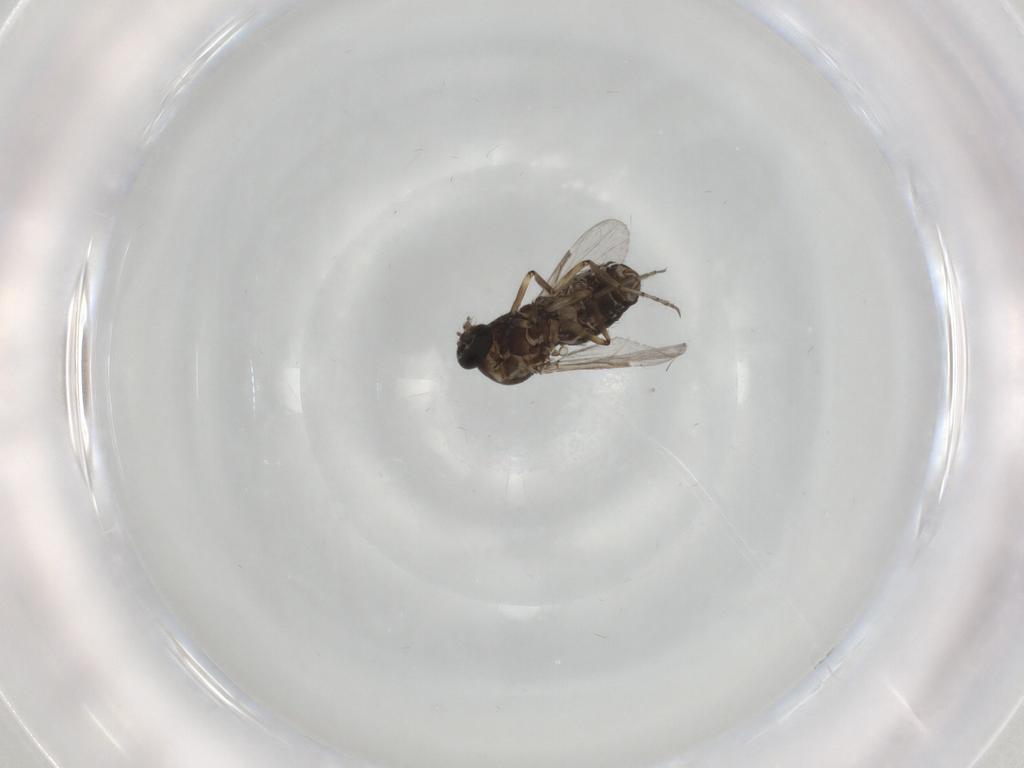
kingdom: Animalia
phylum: Arthropoda
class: Insecta
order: Diptera
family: Ceratopogonidae
